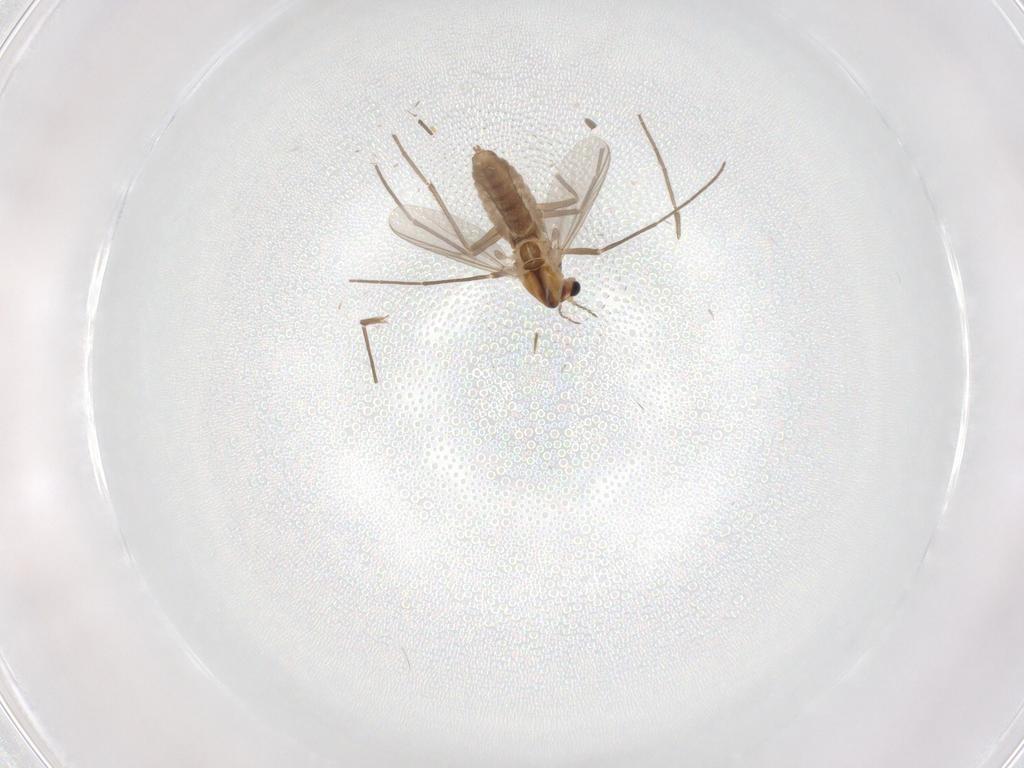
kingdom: Animalia
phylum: Arthropoda
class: Insecta
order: Diptera
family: Chironomidae
